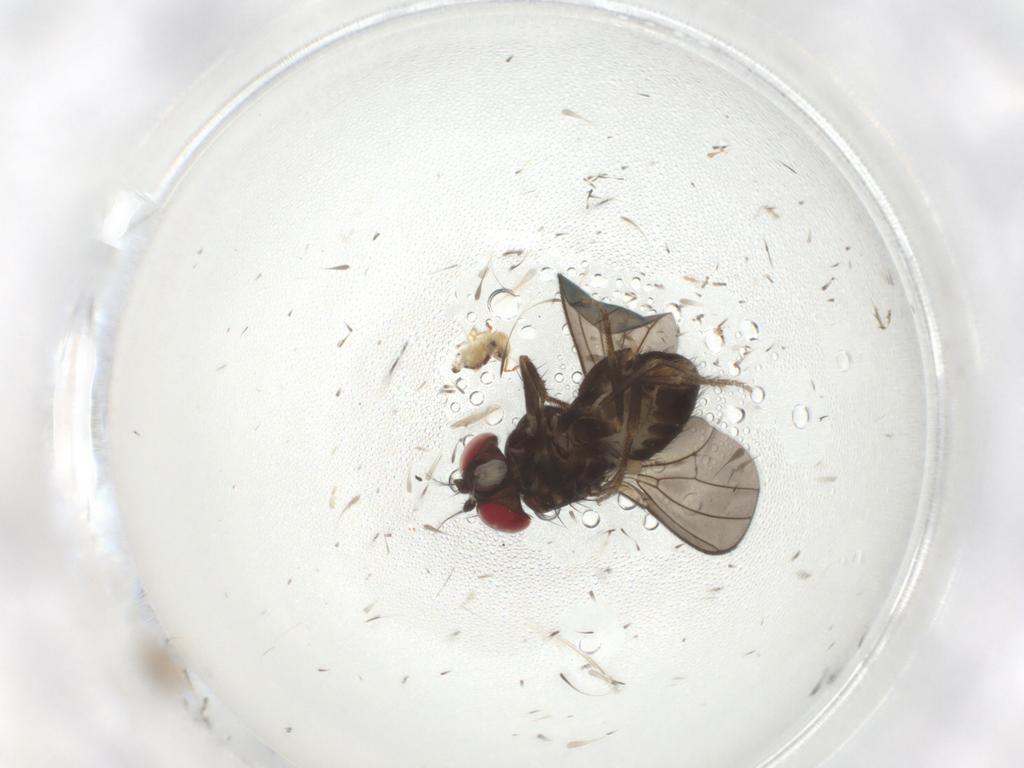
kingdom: Animalia
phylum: Arthropoda
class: Insecta
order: Diptera
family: Drosophilidae
